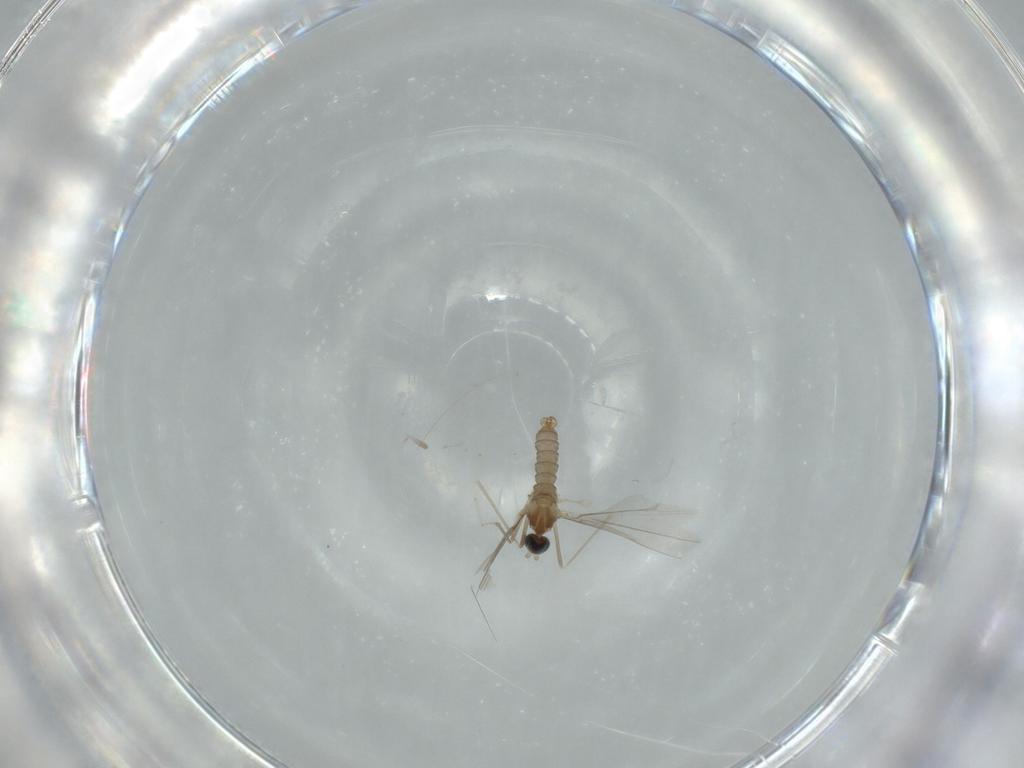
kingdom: Animalia
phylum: Arthropoda
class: Insecta
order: Diptera
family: Cecidomyiidae
